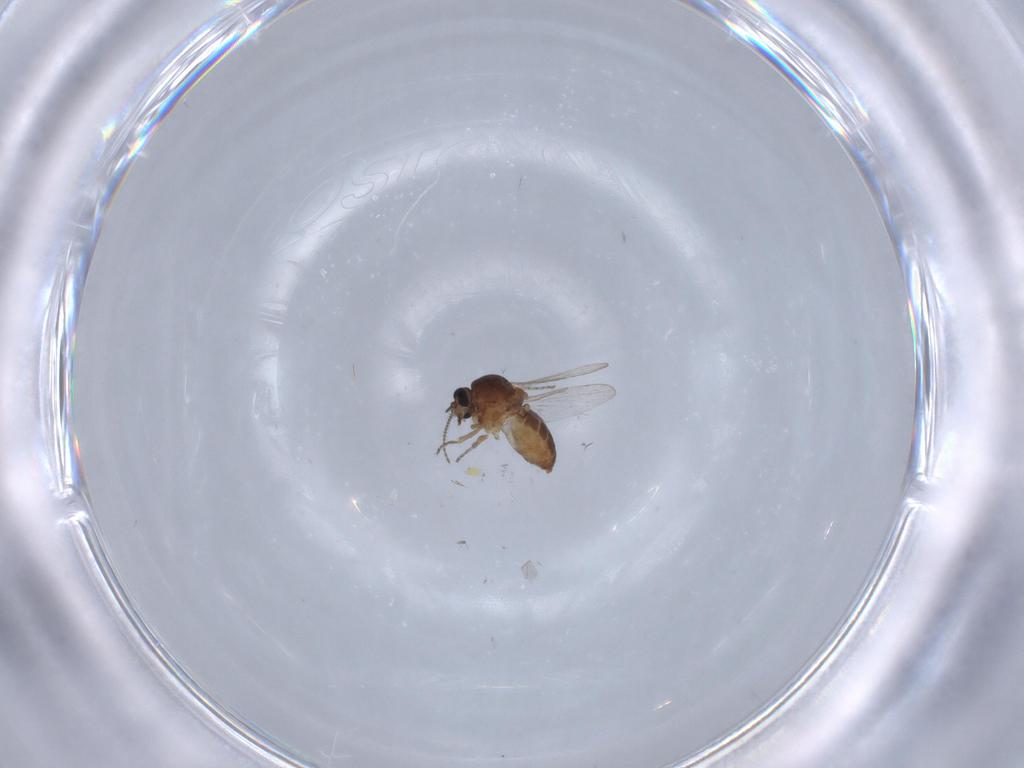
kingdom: Animalia
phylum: Arthropoda
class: Insecta
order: Diptera
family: Ceratopogonidae
